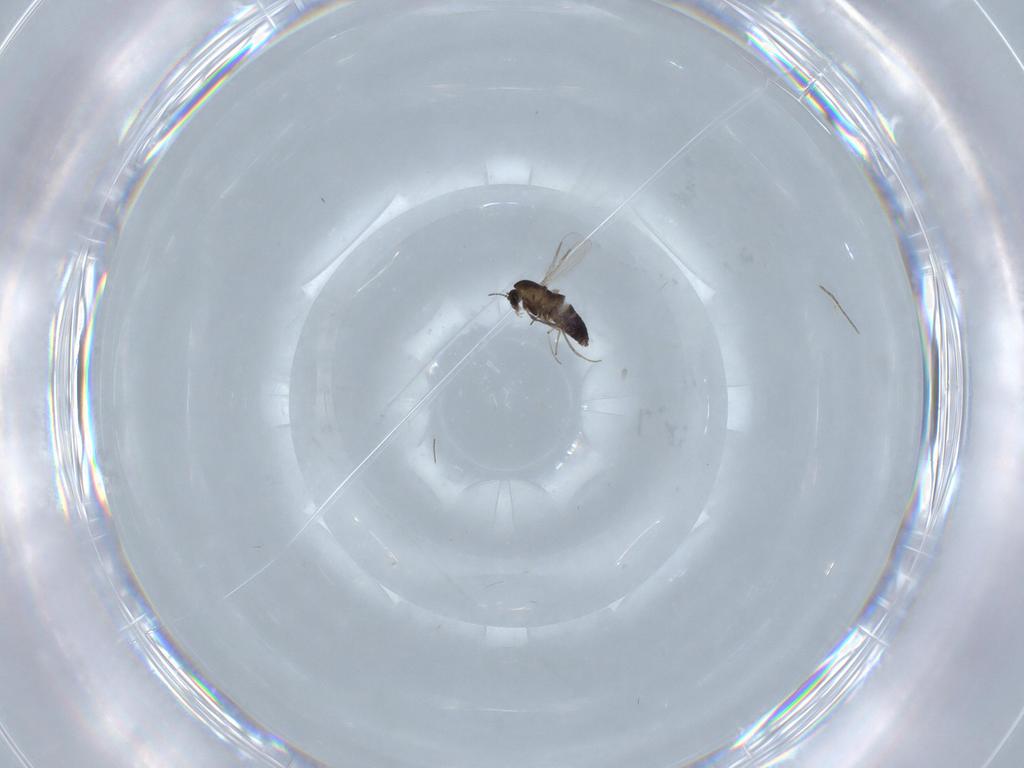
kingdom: Animalia
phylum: Arthropoda
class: Insecta
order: Diptera
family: Chironomidae
